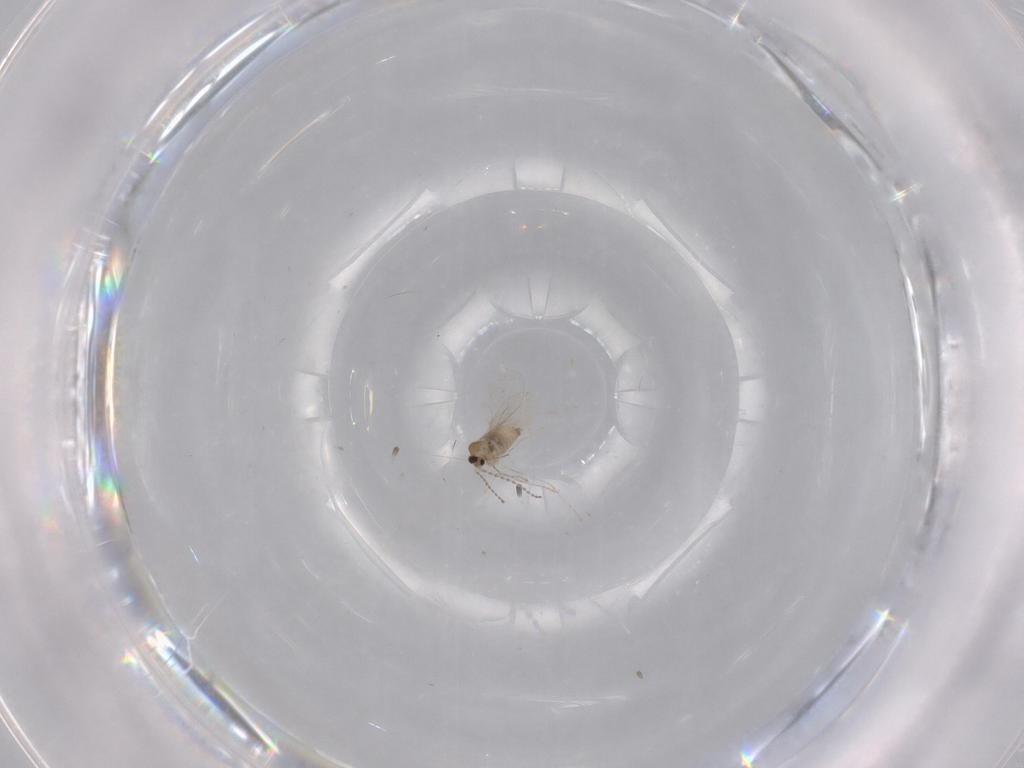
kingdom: Animalia
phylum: Arthropoda
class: Insecta
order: Diptera
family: Cecidomyiidae
